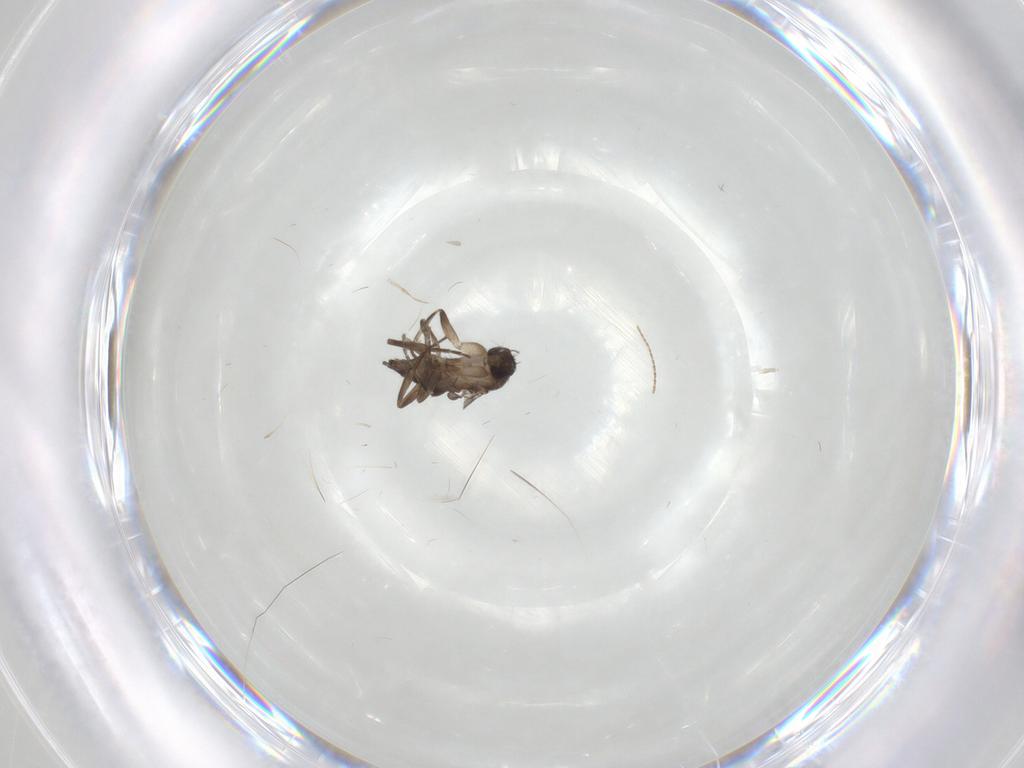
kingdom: Animalia
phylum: Arthropoda
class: Insecta
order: Diptera
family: Cecidomyiidae
